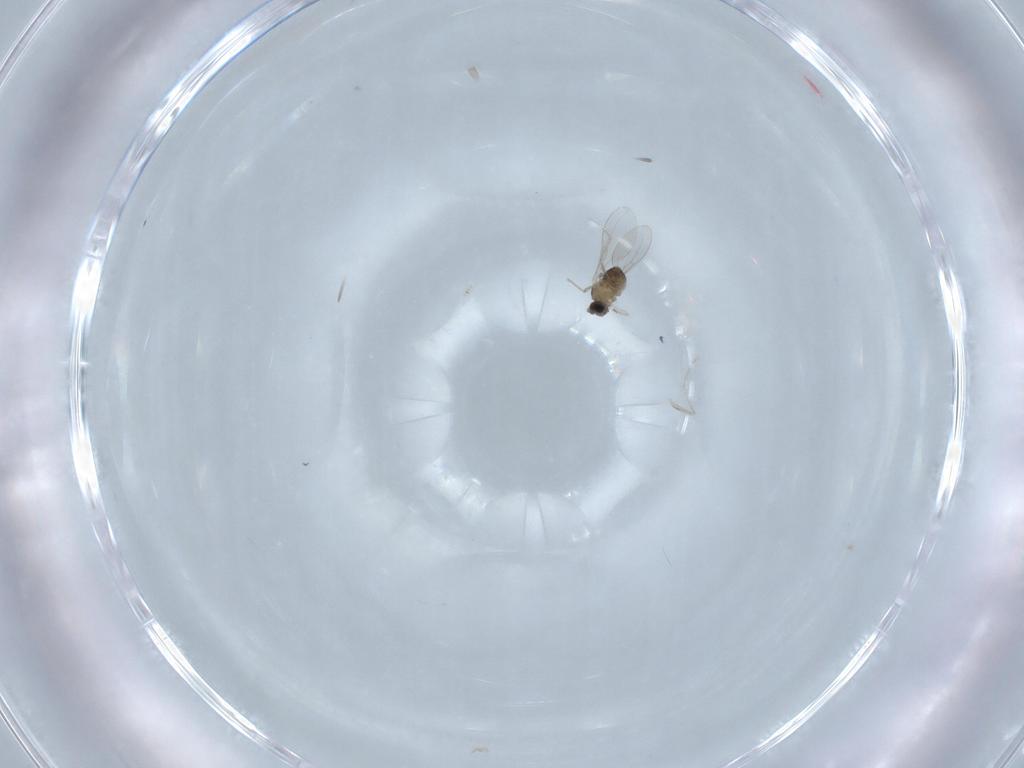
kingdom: Animalia
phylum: Arthropoda
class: Insecta
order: Diptera
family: Cecidomyiidae
